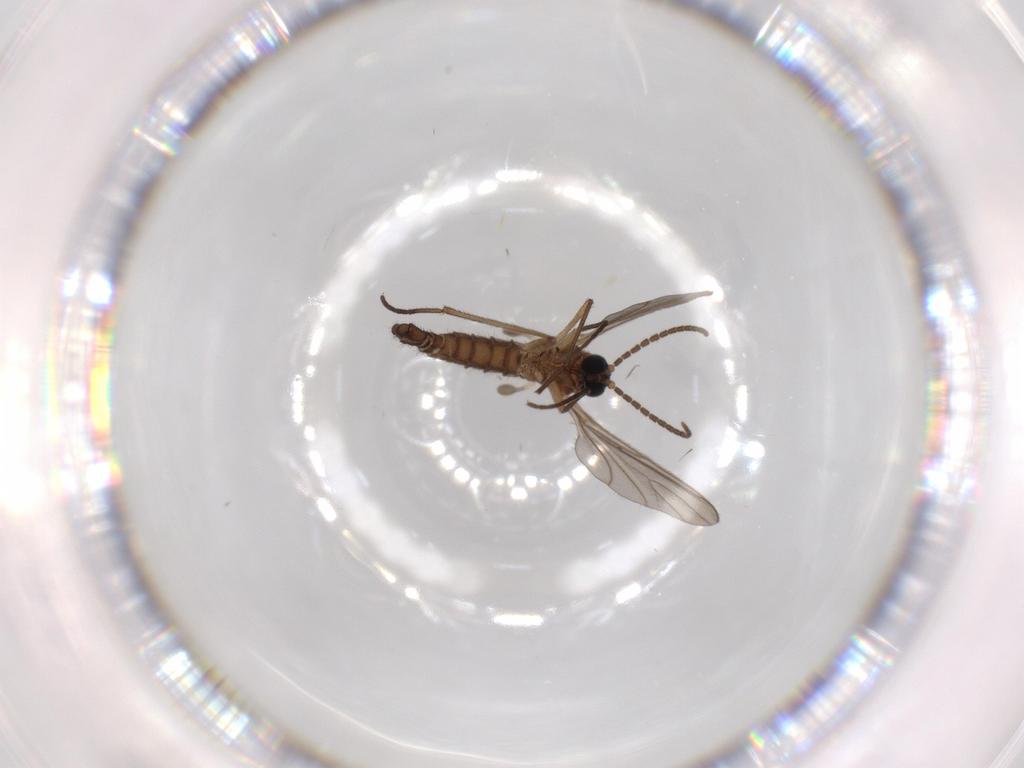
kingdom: Animalia
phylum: Arthropoda
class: Insecta
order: Diptera
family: Sciaridae
